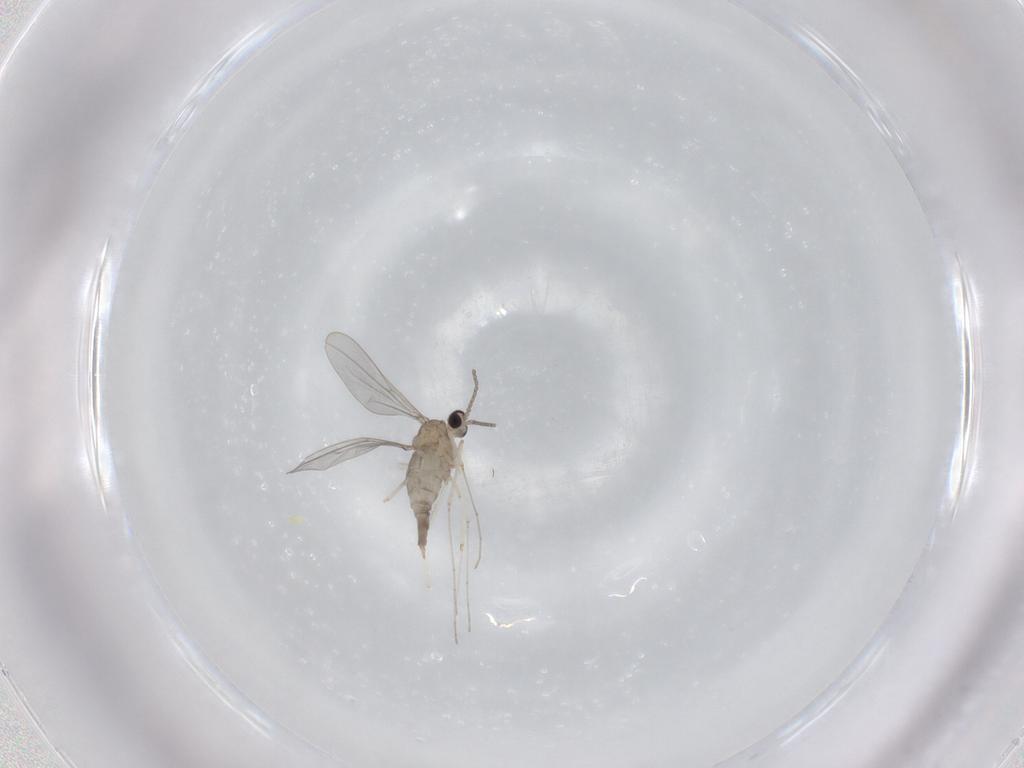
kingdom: Animalia
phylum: Arthropoda
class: Insecta
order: Diptera
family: Cecidomyiidae
